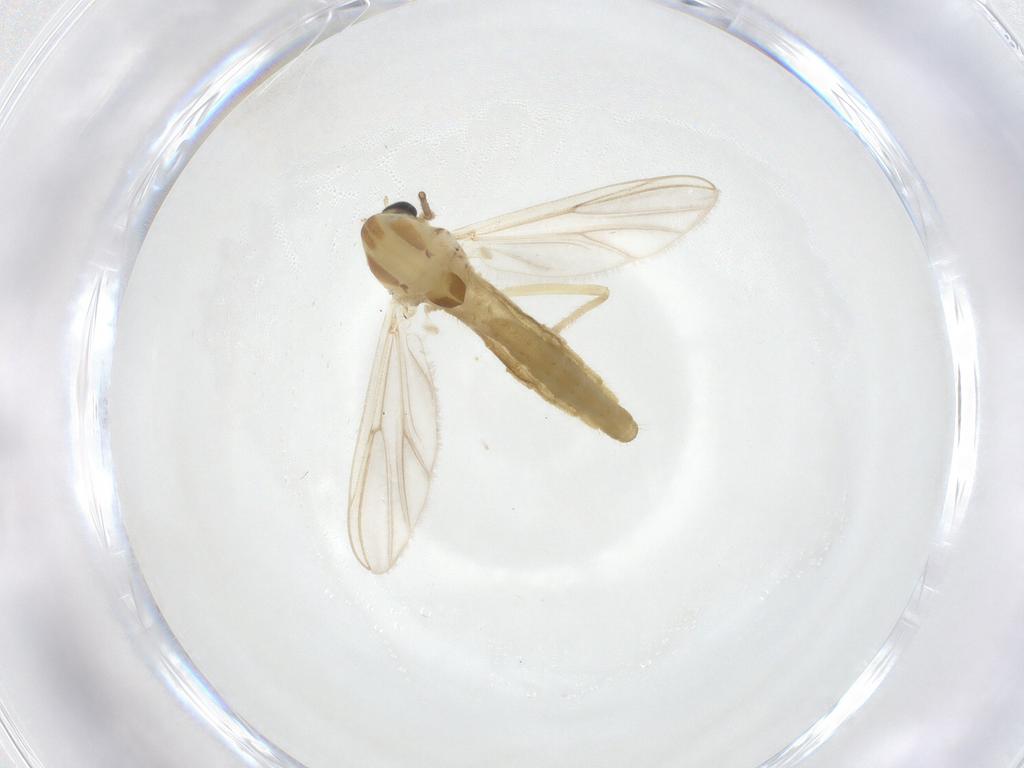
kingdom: Animalia
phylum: Arthropoda
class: Insecta
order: Diptera
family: Chironomidae
